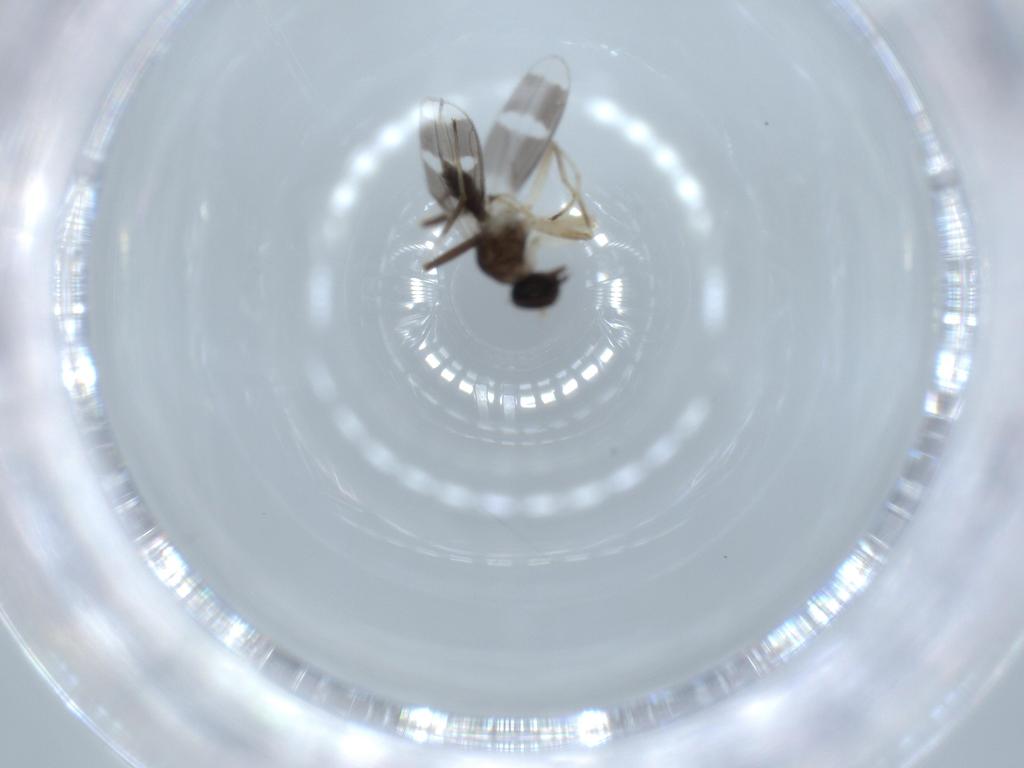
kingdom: Animalia
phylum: Arthropoda
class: Insecta
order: Diptera
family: Hybotidae
